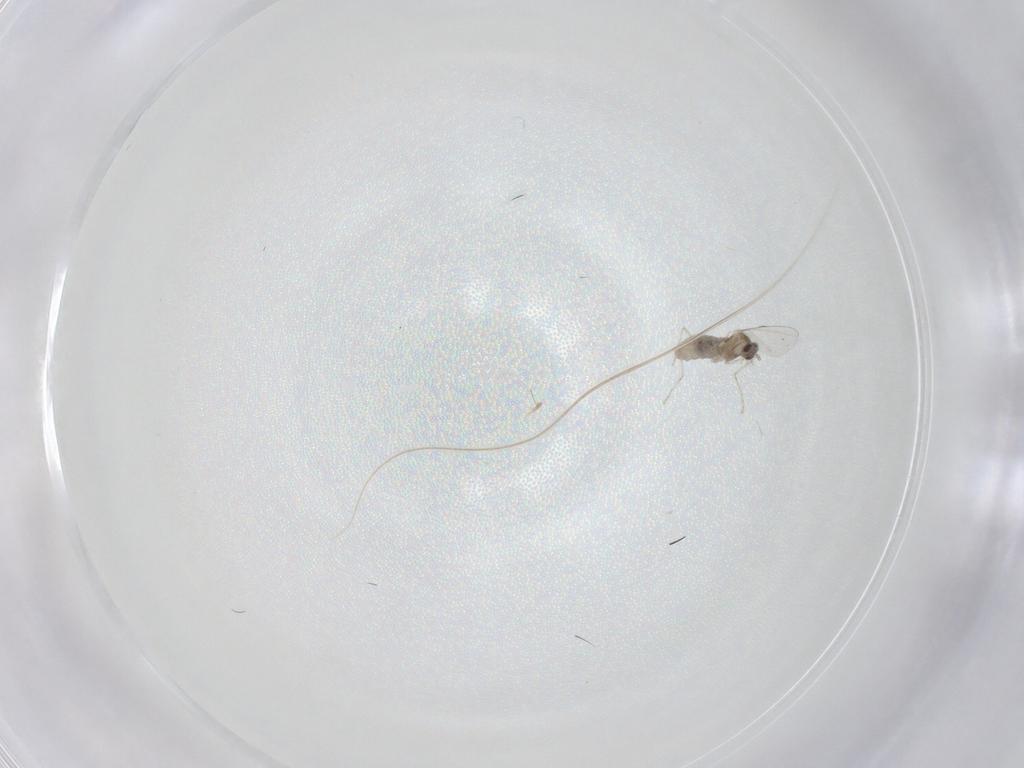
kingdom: Animalia
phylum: Arthropoda
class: Insecta
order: Diptera
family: Cecidomyiidae
